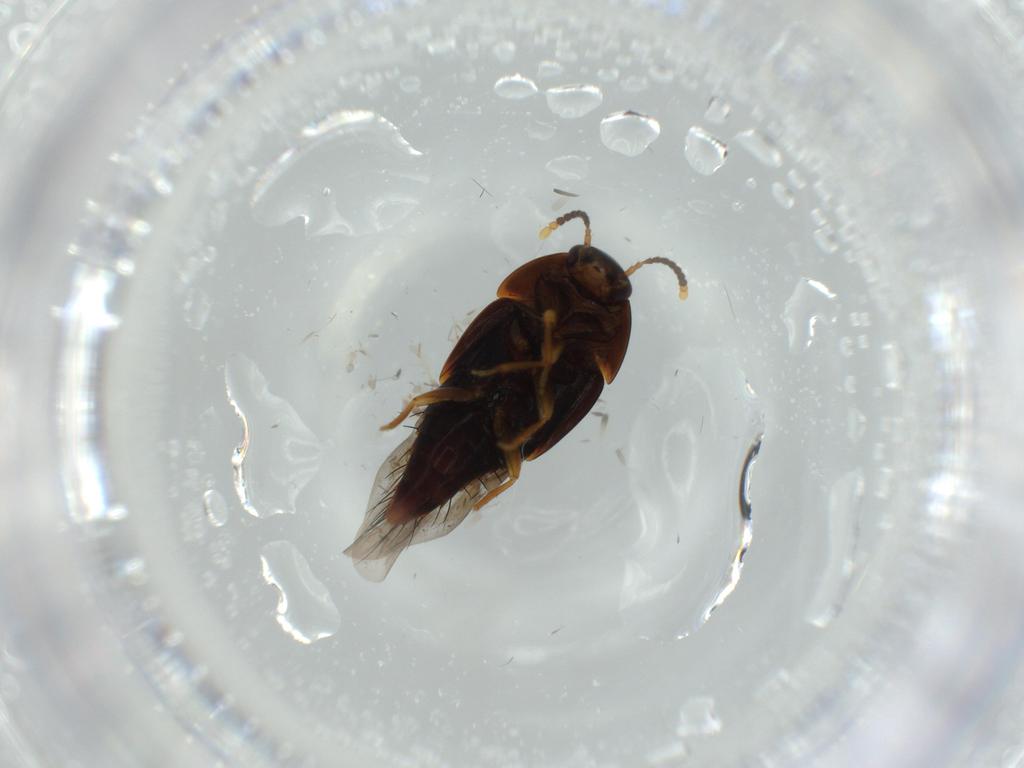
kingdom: Animalia
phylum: Arthropoda
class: Insecta
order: Coleoptera
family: Staphylinidae
